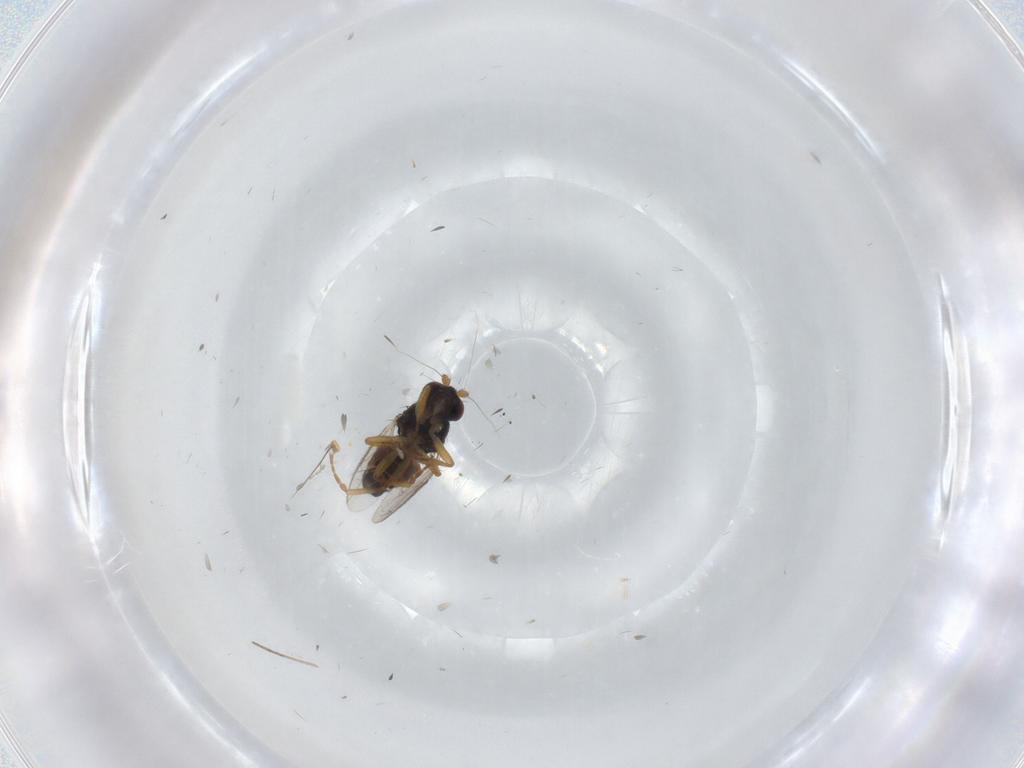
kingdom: Animalia
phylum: Arthropoda
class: Insecta
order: Diptera
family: Sphaeroceridae
